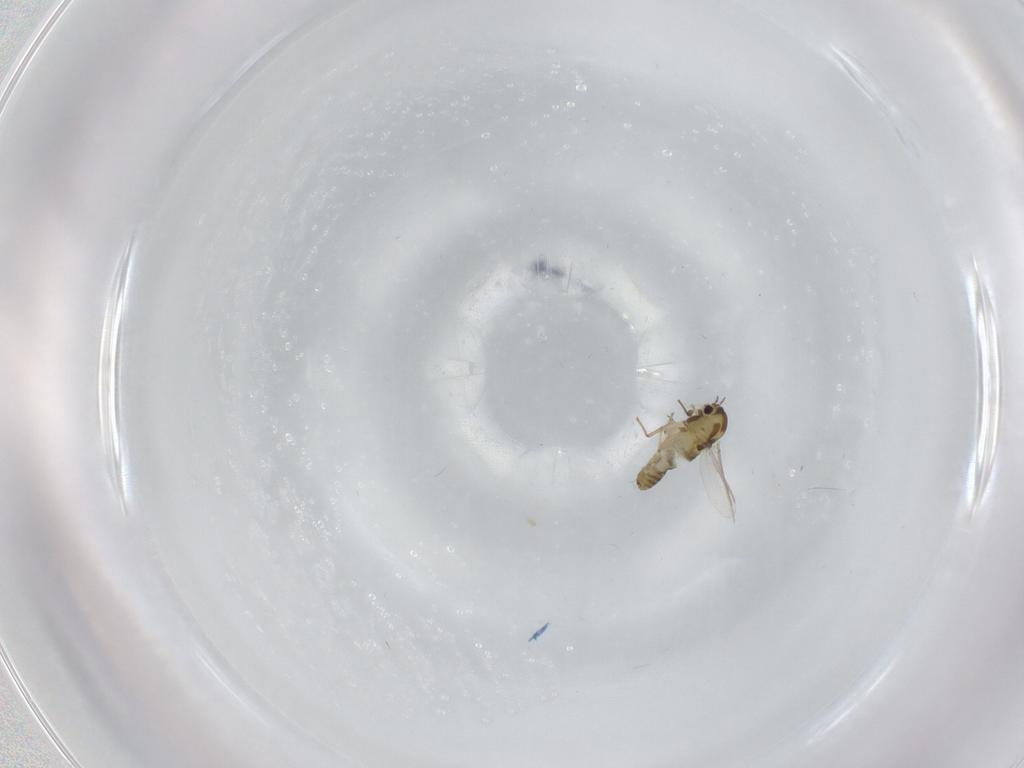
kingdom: Animalia
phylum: Arthropoda
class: Insecta
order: Diptera
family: Chironomidae
